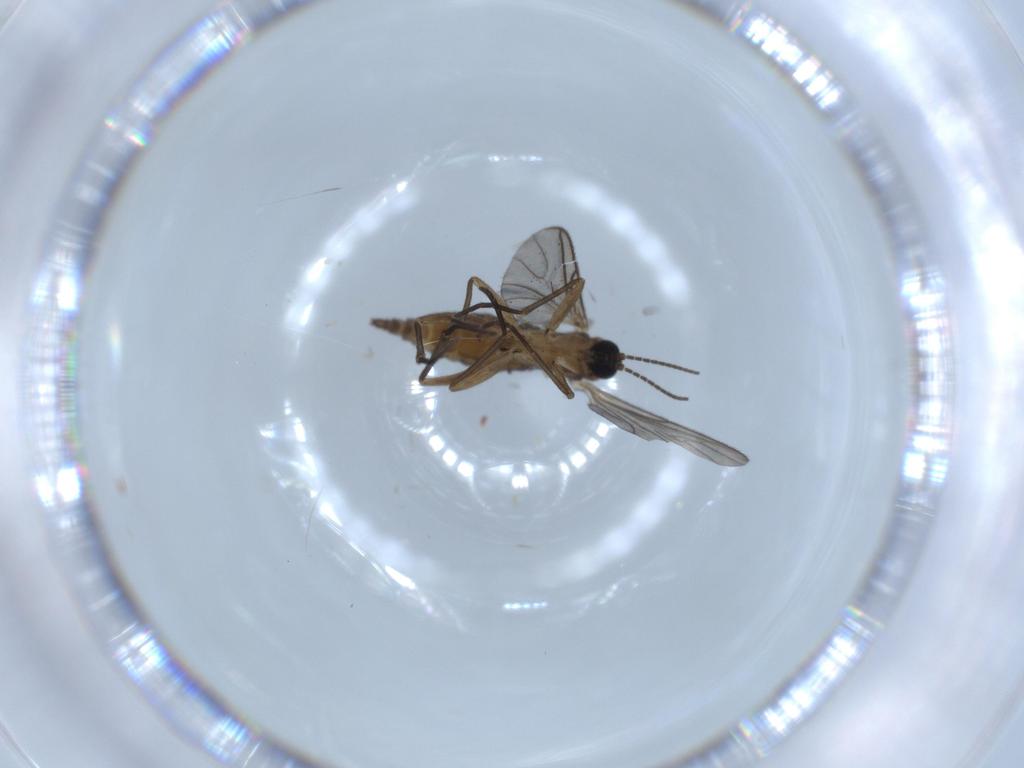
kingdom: Animalia
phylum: Arthropoda
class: Insecta
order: Diptera
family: Sciaridae
